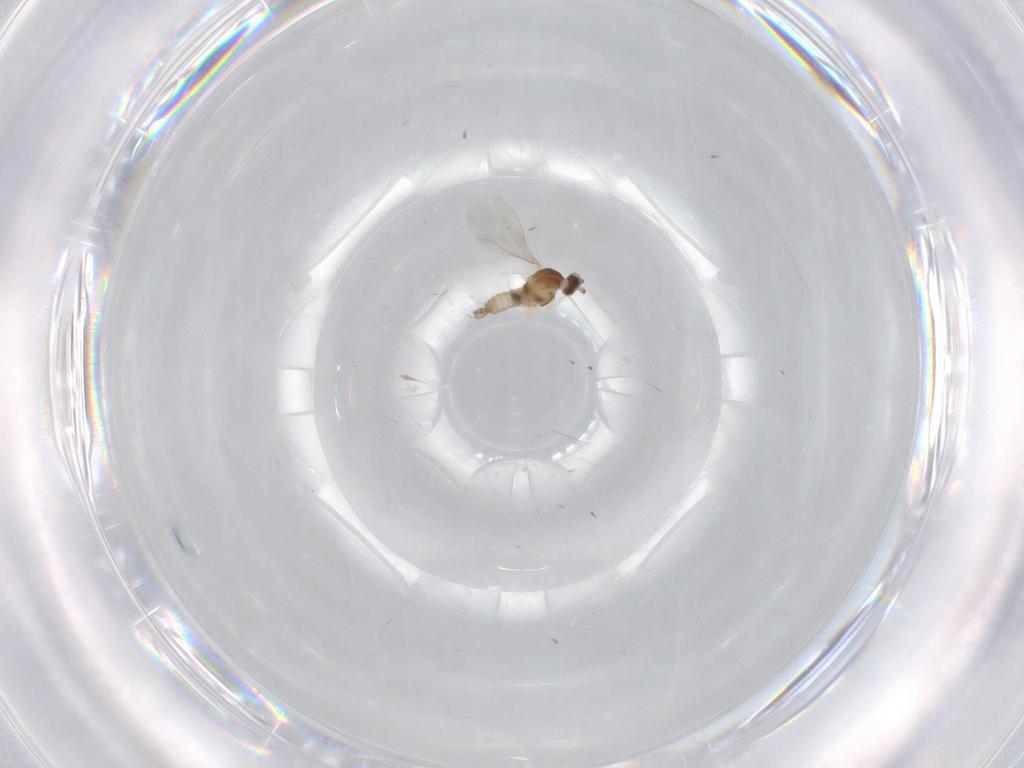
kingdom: Animalia
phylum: Arthropoda
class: Insecta
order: Diptera
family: Cecidomyiidae
